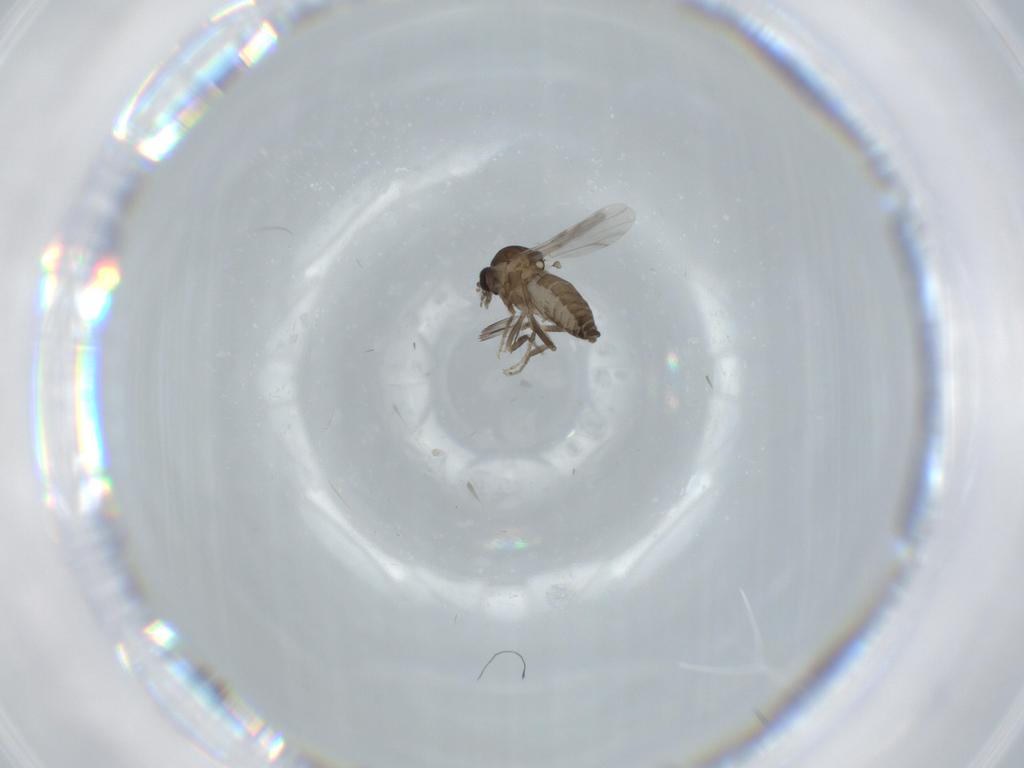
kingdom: Animalia
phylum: Arthropoda
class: Insecta
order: Diptera
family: Ceratopogonidae
